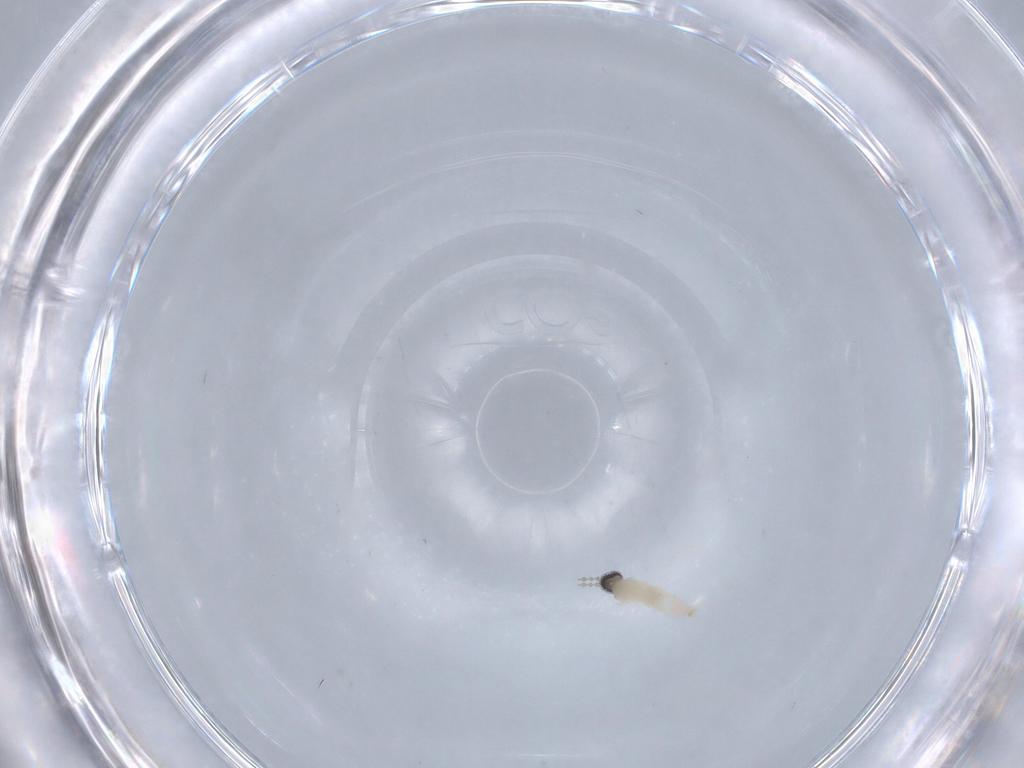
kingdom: Animalia
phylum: Arthropoda
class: Insecta
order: Diptera
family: Cecidomyiidae
